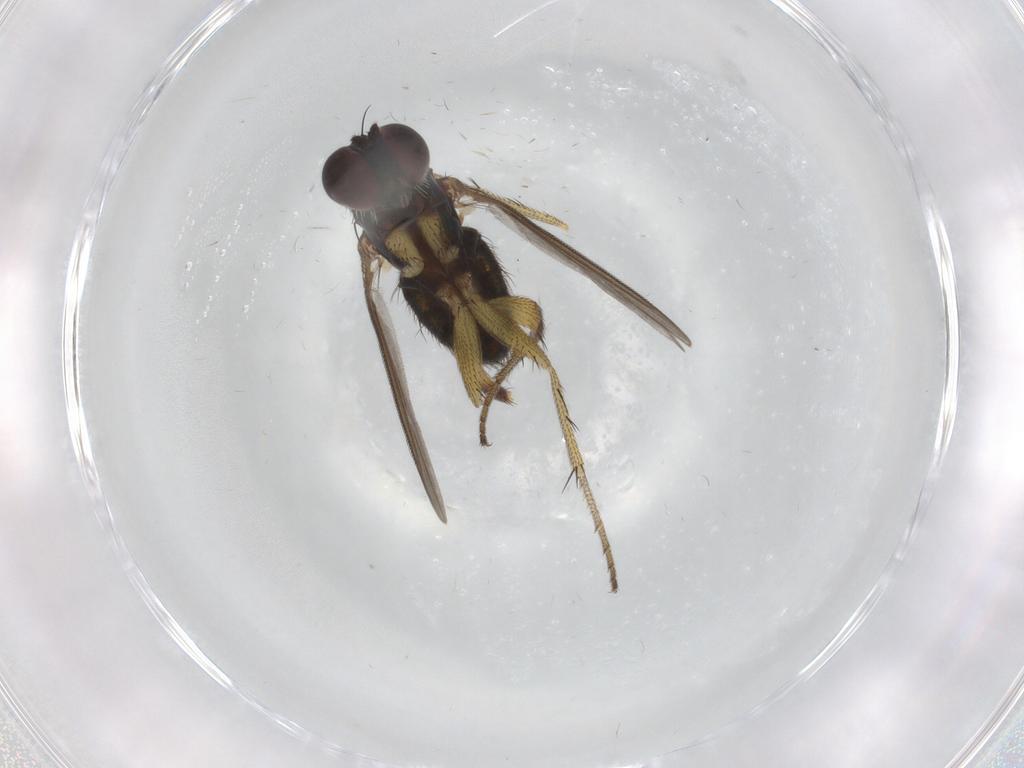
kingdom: Animalia
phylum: Arthropoda
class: Insecta
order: Diptera
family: Dolichopodidae
